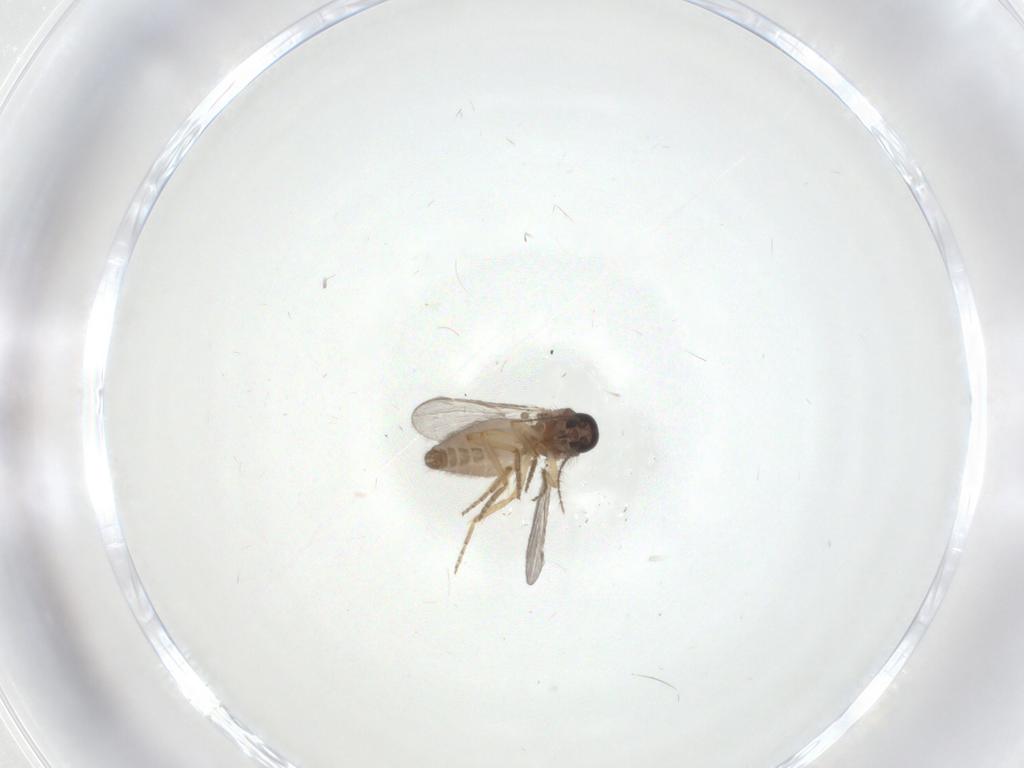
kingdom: Animalia
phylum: Arthropoda
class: Insecta
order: Diptera
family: Ceratopogonidae
